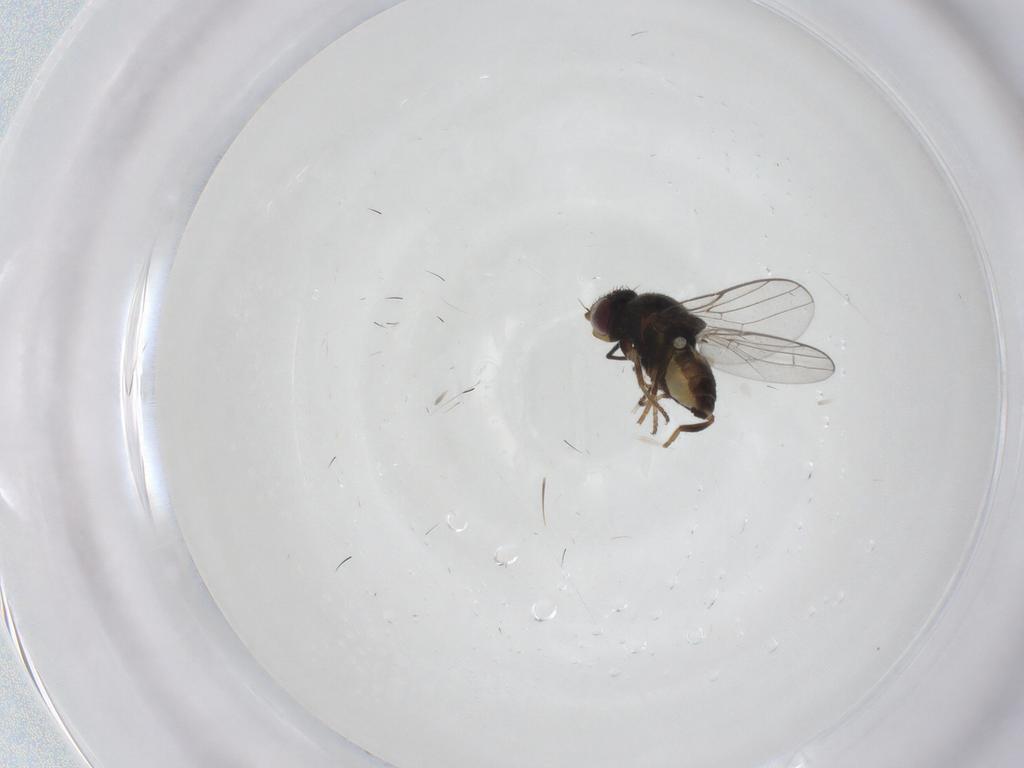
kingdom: Animalia
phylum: Arthropoda
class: Insecta
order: Diptera
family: Chloropidae
